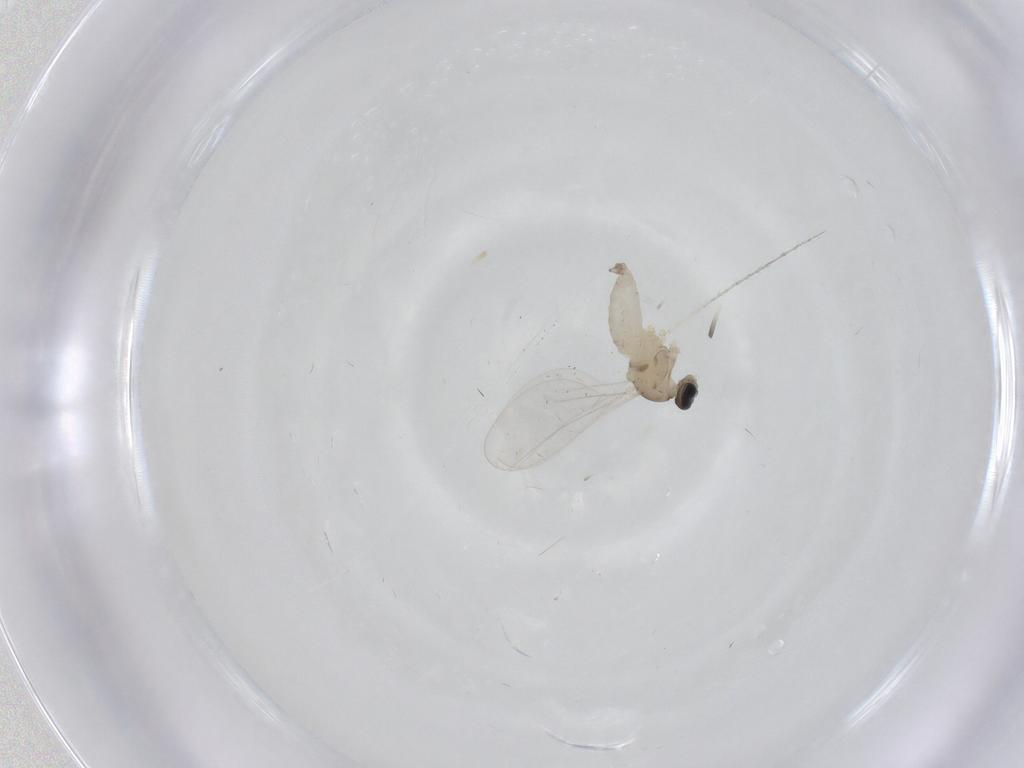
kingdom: Animalia
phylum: Arthropoda
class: Insecta
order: Diptera
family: Cecidomyiidae
